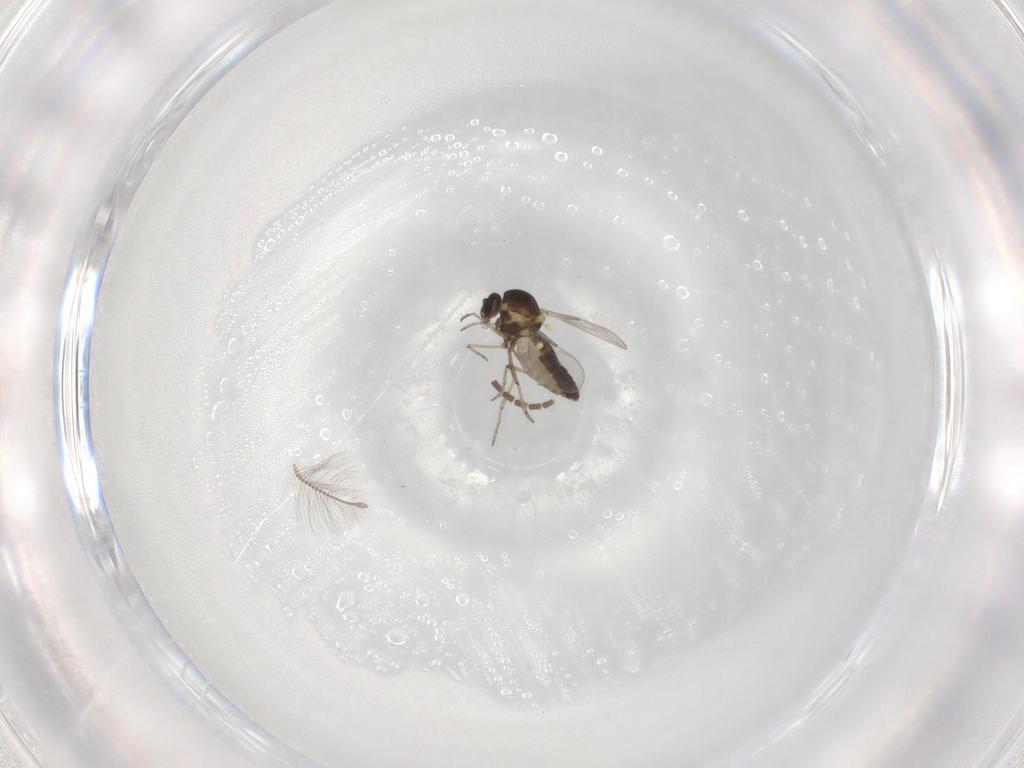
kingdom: Animalia
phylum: Arthropoda
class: Insecta
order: Diptera
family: Ceratopogonidae
